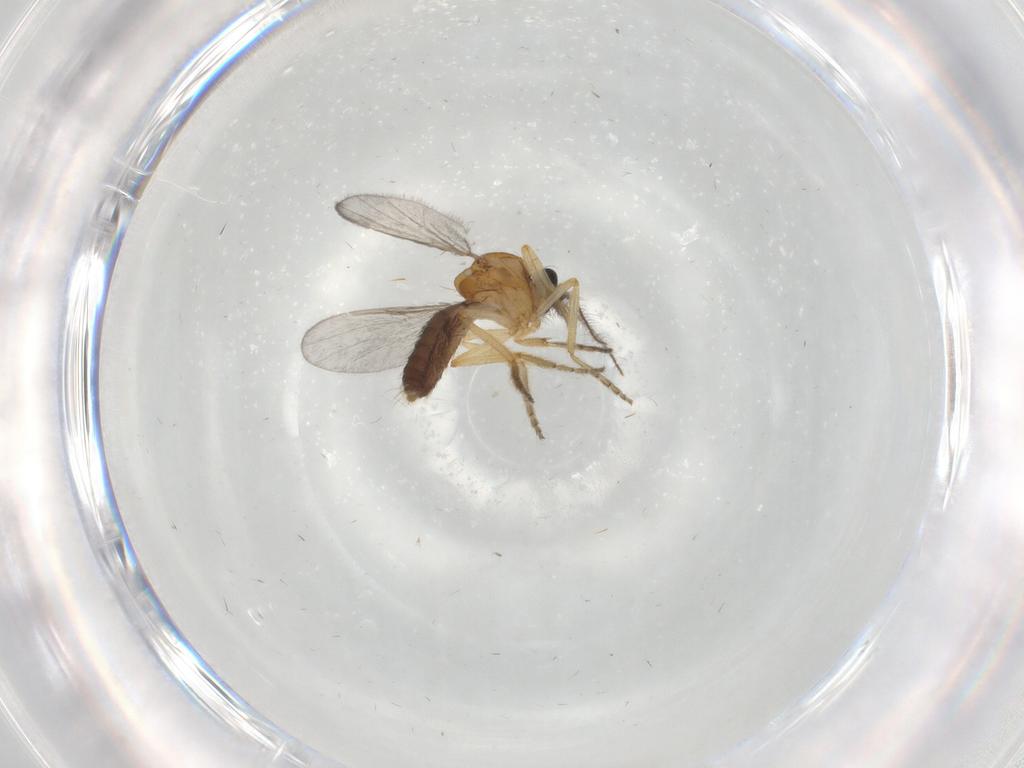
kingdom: Animalia
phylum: Arthropoda
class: Insecta
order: Diptera
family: Ceratopogonidae
